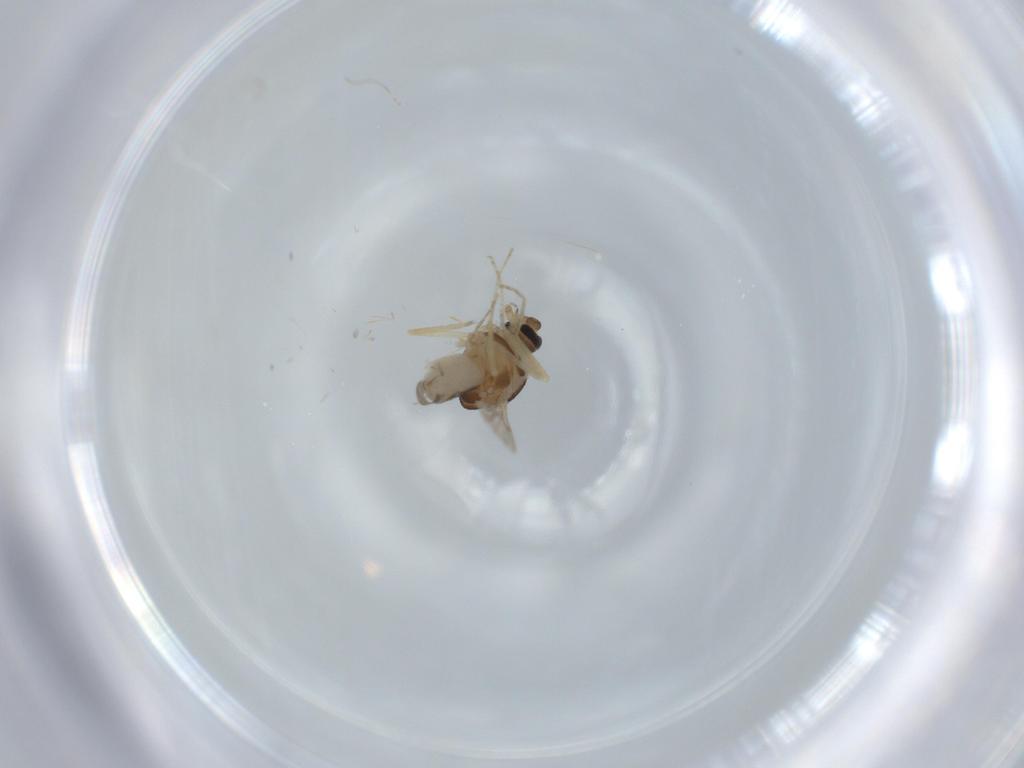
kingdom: Animalia
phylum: Arthropoda
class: Insecta
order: Diptera
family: Ceratopogonidae
